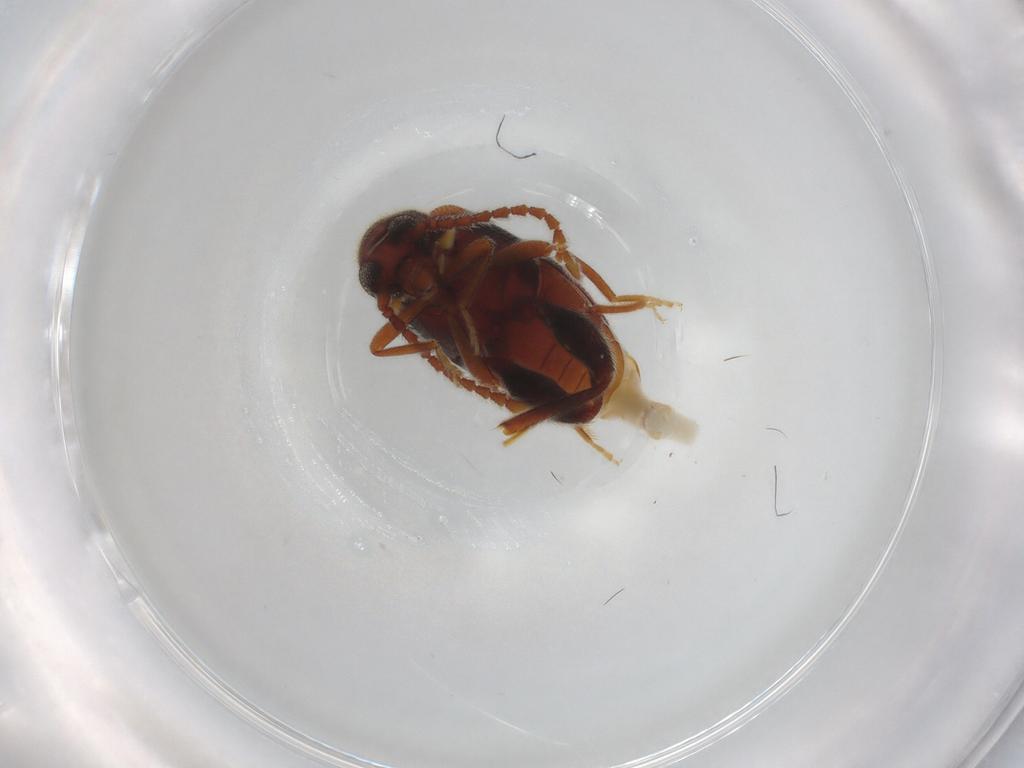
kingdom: Animalia
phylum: Arthropoda
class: Insecta
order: Coleoptera
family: Aderidae
